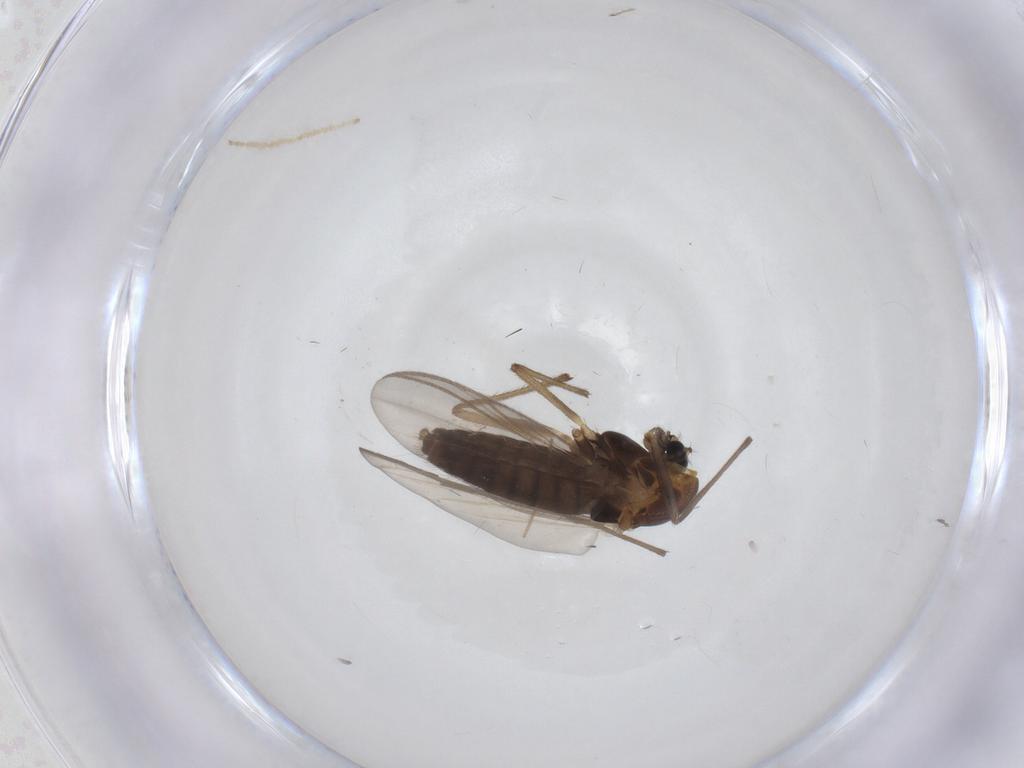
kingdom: Animalia
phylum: Arthropoda
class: Insecta
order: Diptera
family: Chironomidae
